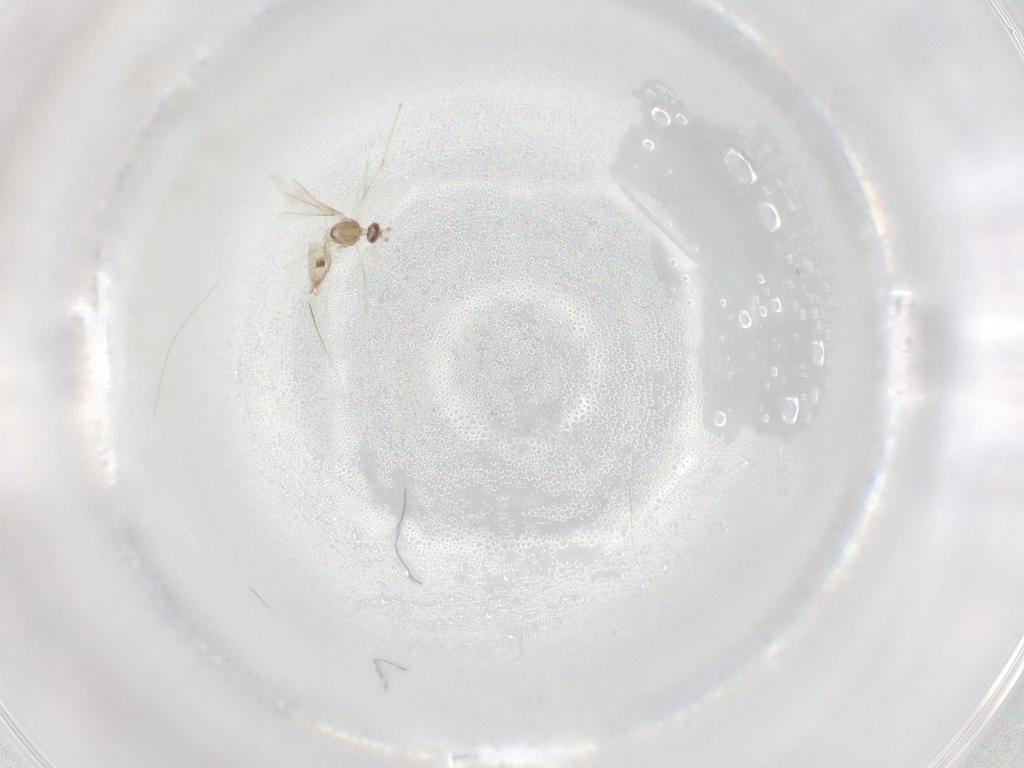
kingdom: Animalia
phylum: Arthropoda
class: Insecta
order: Diptera
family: Cecidomyiidae
